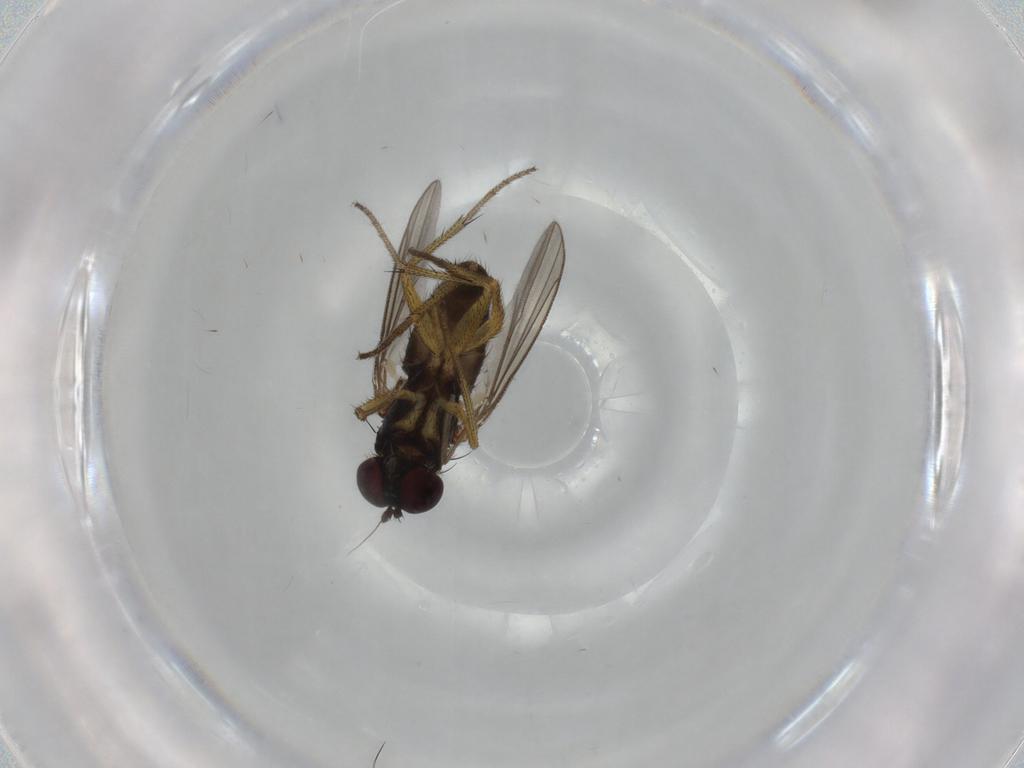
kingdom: Animalia
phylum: Arthropoda
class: Insecta
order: Diptera
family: Dolichopodidae
